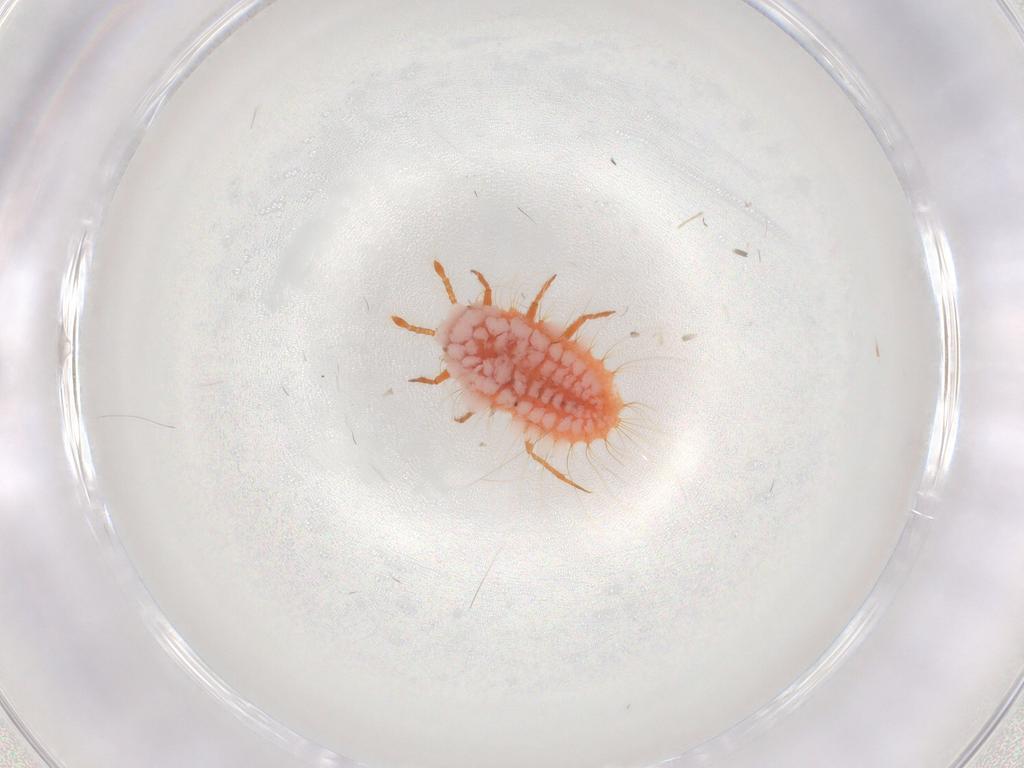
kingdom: Animalia
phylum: Arthropoda
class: Insecta
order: Hemiptera
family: Coccoidea_incertae_sedis
